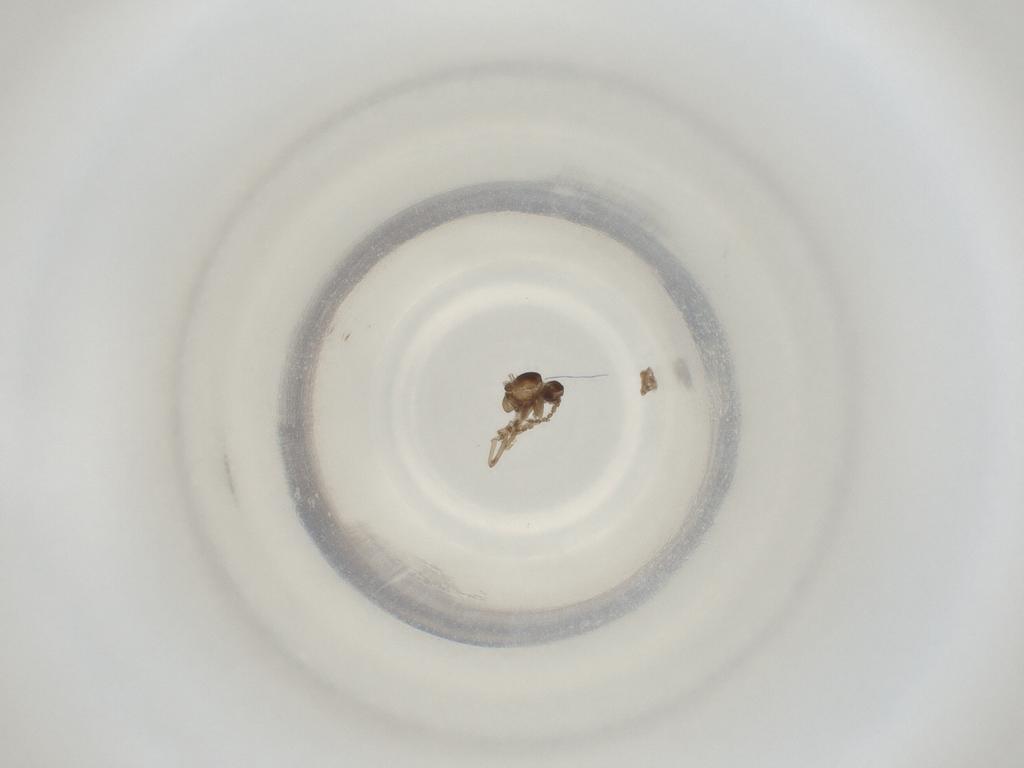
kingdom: Animalia
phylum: Arthropoda
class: Insecta
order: Diptera
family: Cecidomyiidae
